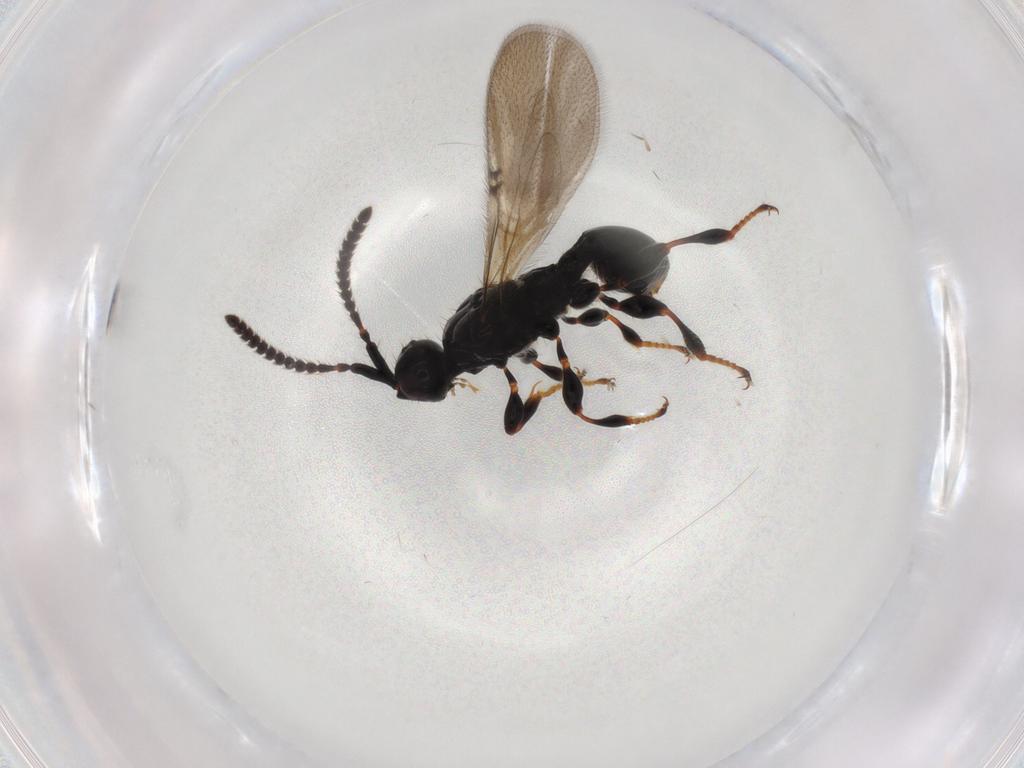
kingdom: Animalia
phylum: Arthropoda
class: Insecta
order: Hymenoptera
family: Diapriidae
